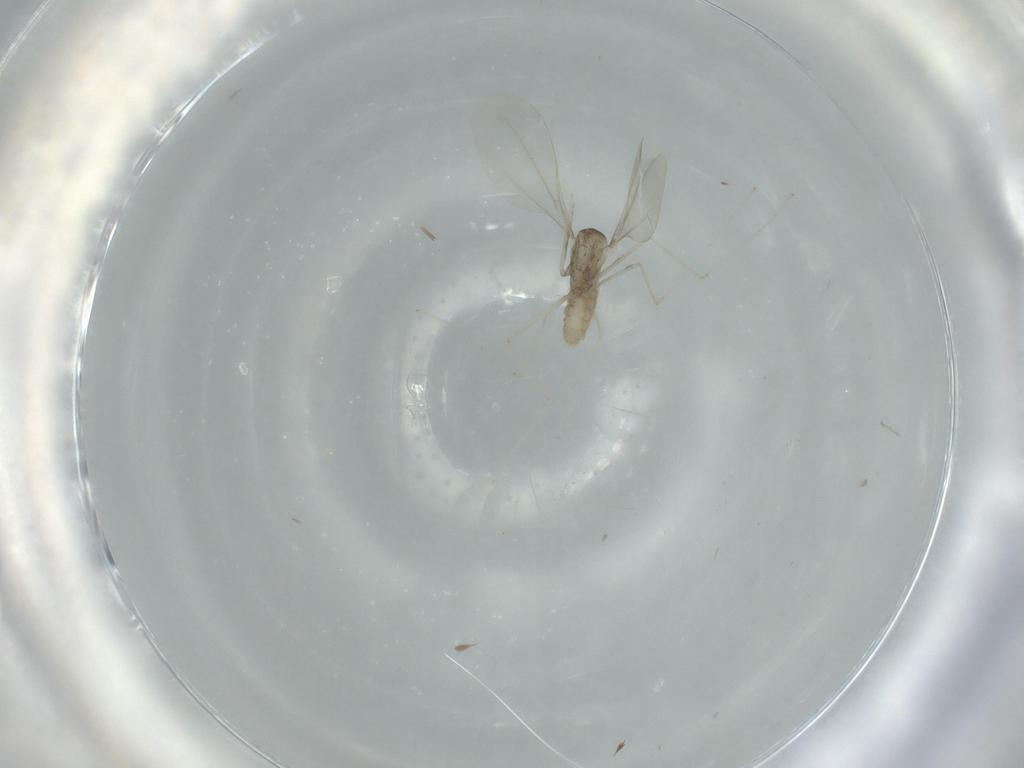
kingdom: Animalia
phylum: Arthropoda
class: Insecta
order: Diptera
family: Cecidomyiidae
